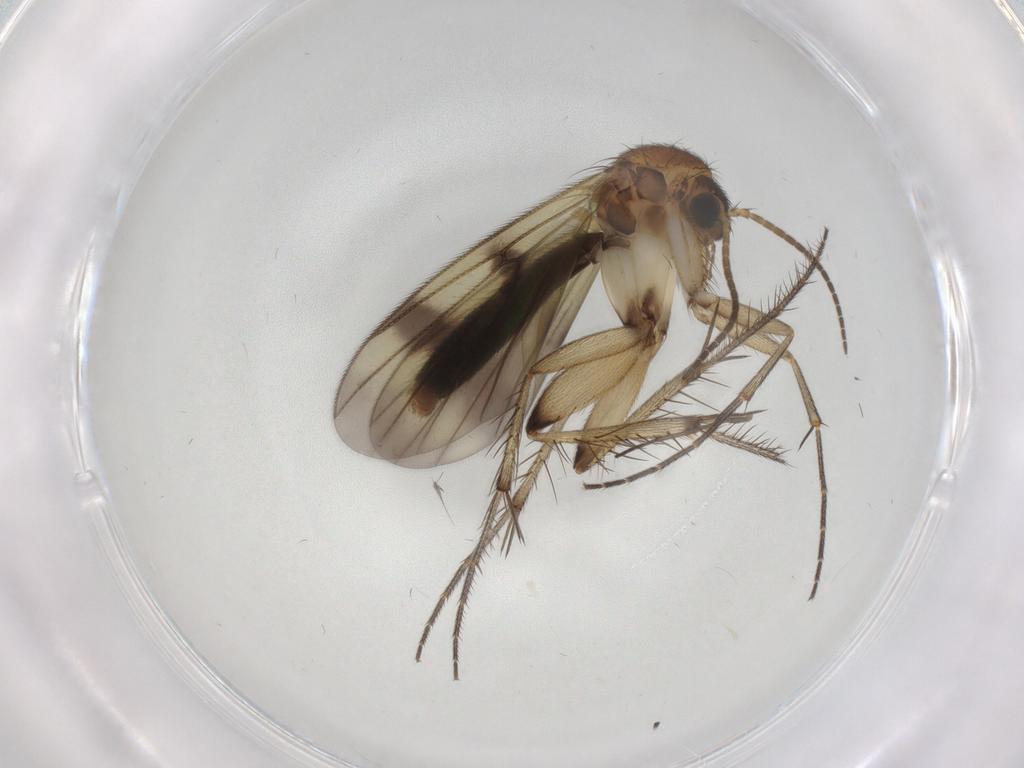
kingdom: Animalia
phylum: Arthropoda
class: Insecta
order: Diptera
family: Sciaridae
